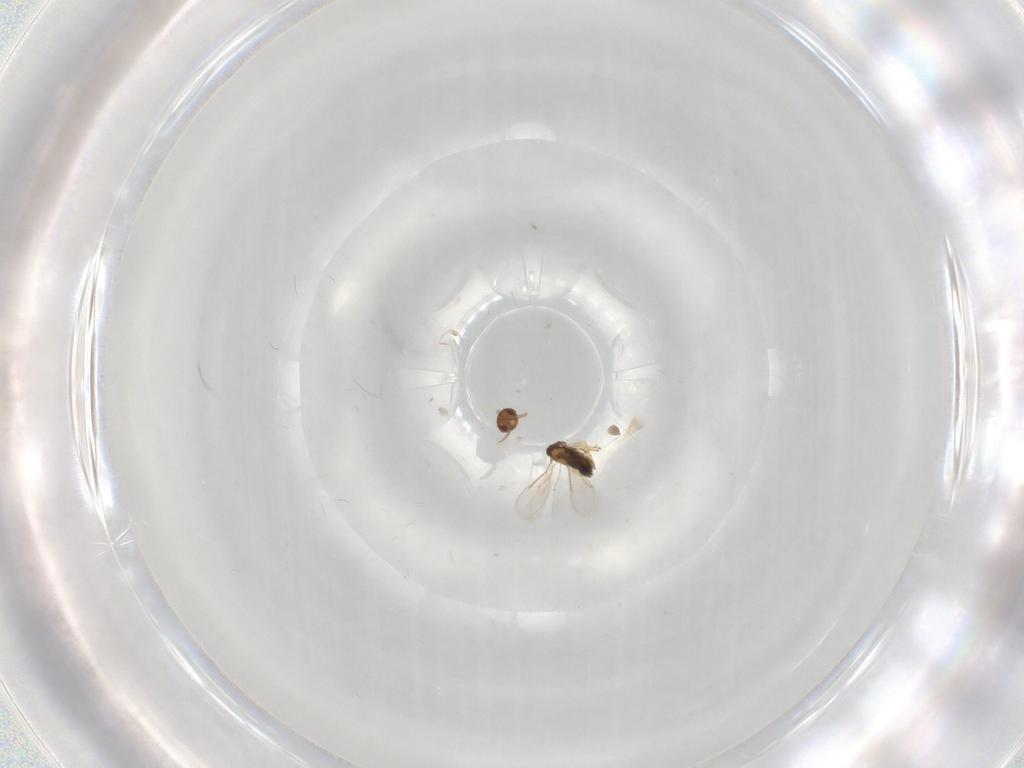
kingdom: Animalia
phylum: Arthropoda
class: Insecta
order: Hymenoptera
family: Aphelinidae
